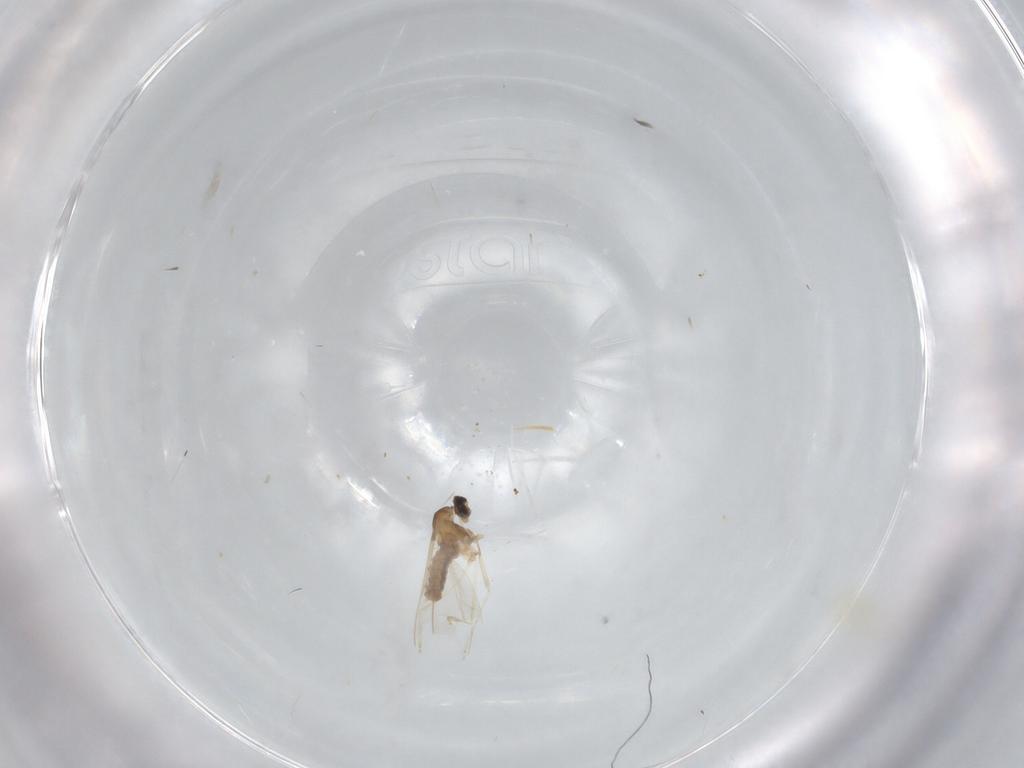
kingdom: Animalia
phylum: Arthropoda
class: Insecta
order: Diptera
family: Cecidomyiidae
